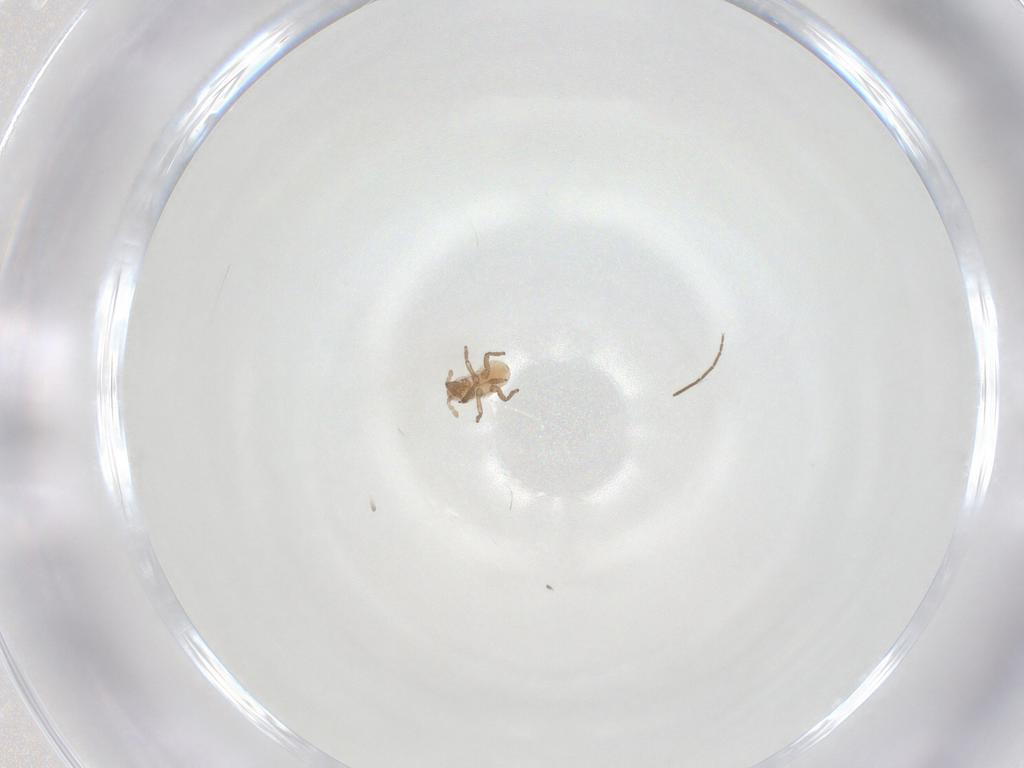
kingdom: Animalia
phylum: Arthropoda
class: Insecta
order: Hemiptera
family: Aphididae
